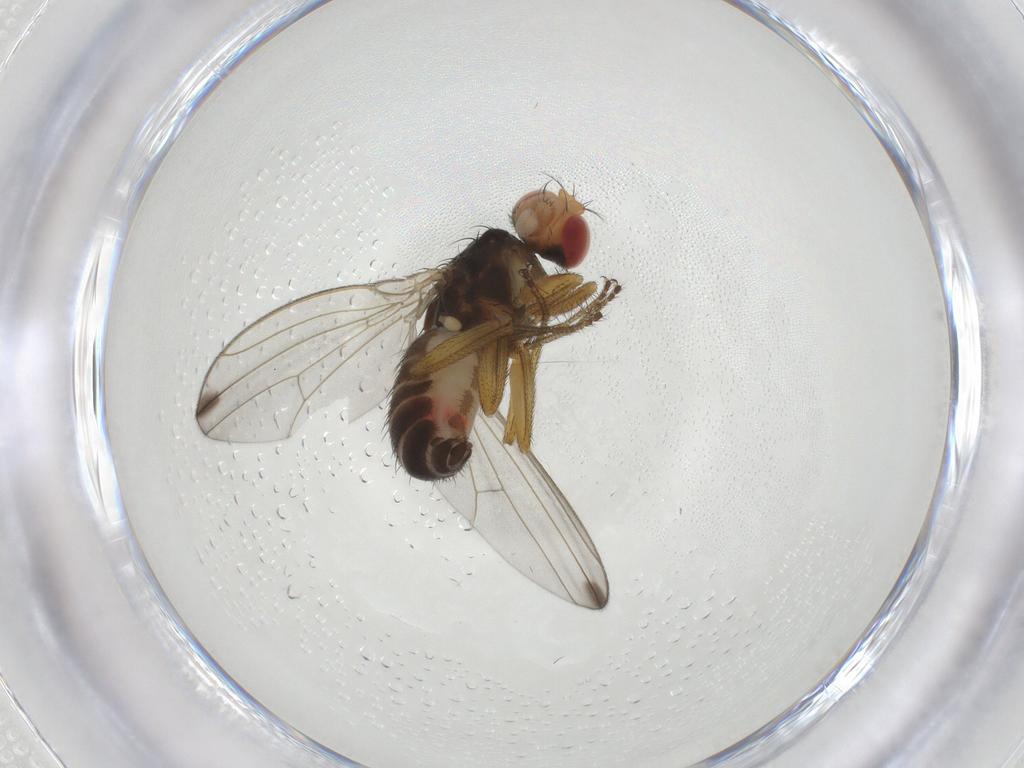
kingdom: Animalia
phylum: Arthropoda
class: Insecta
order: Diptera
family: Drosophilidae
